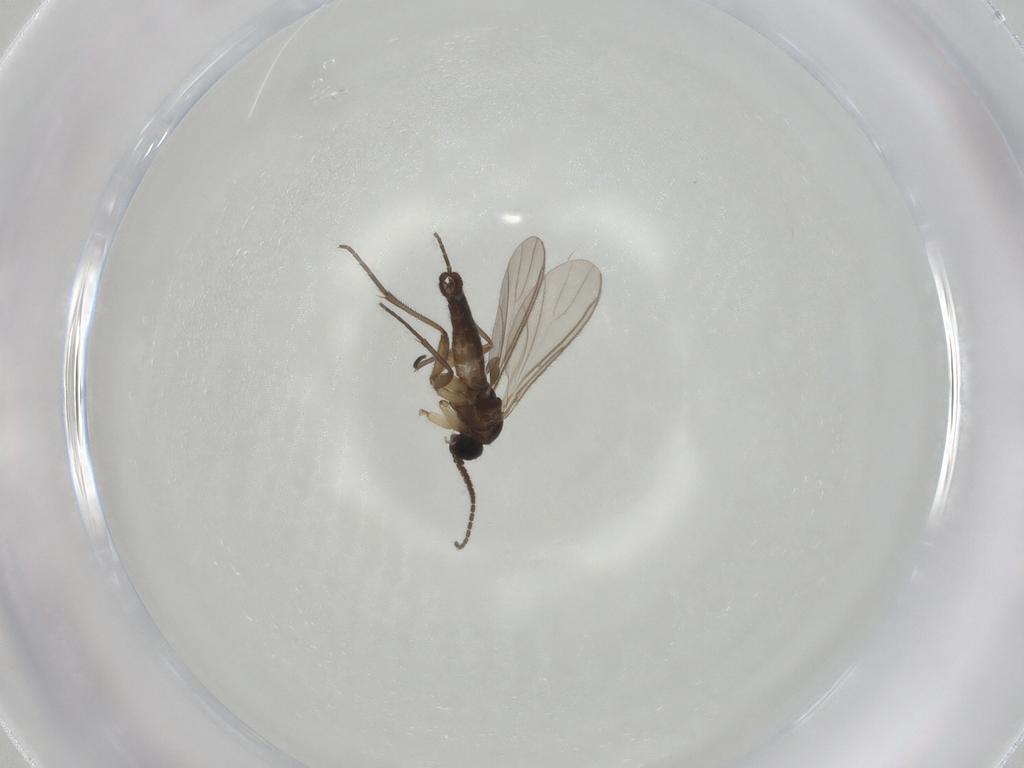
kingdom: Animalia
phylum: Arthropoda
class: Insecta
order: Diptera
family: Sciaridae
